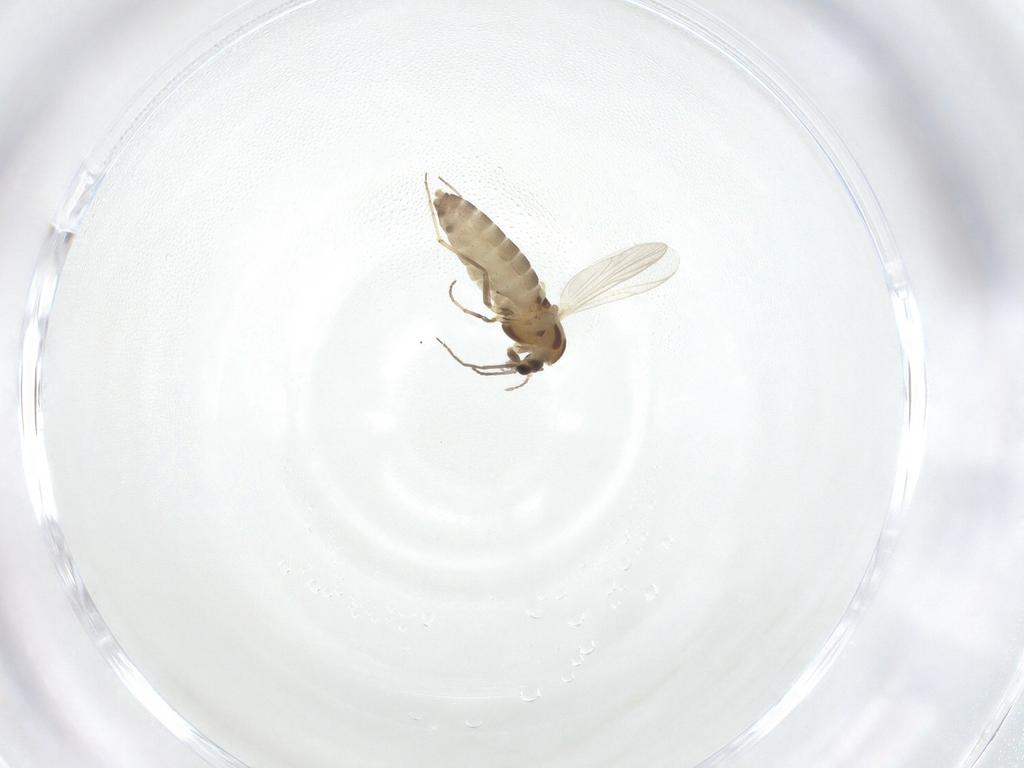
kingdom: Animalia
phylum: Arthropoda
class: Insecta
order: Diptera
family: Chironomidae
